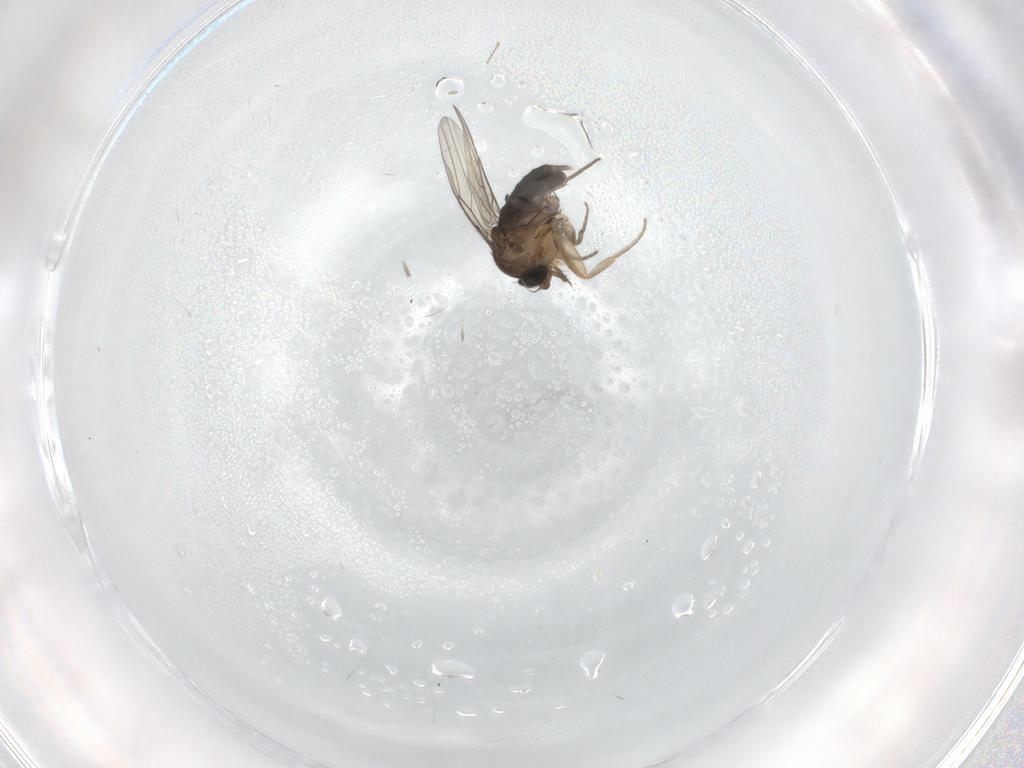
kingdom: Animalia
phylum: Arthropoda
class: Insecta
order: Diptera
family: Phoridae
